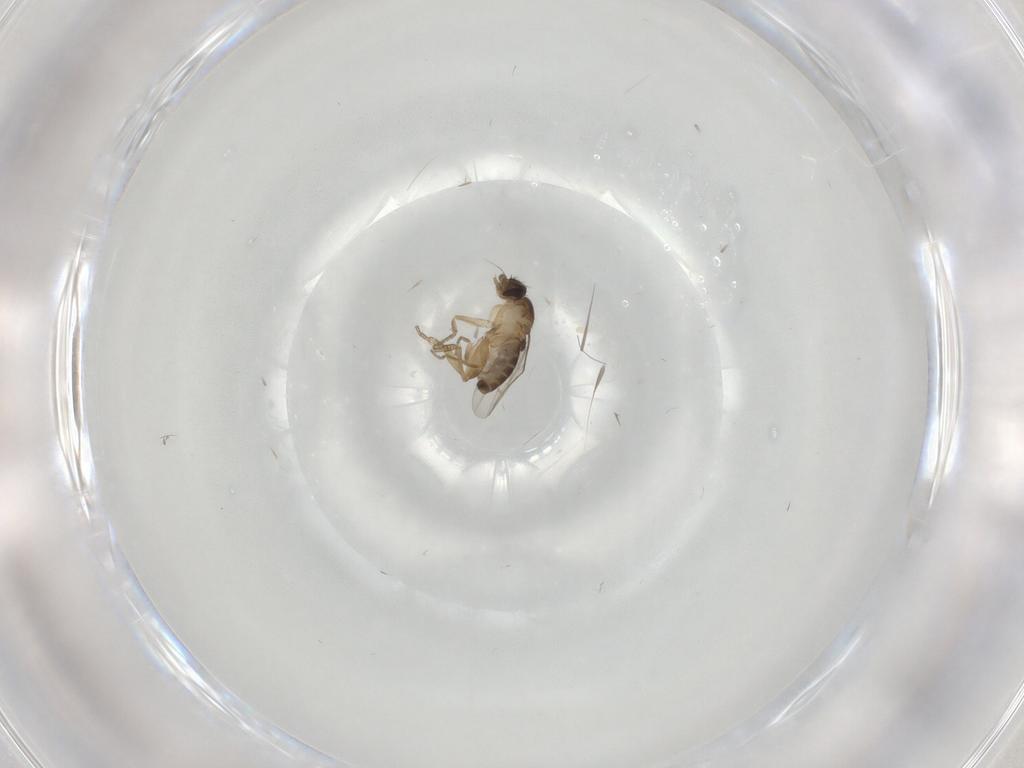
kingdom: Animalia
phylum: Arthropoda
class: Insecta
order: Diptera
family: Phoridae
